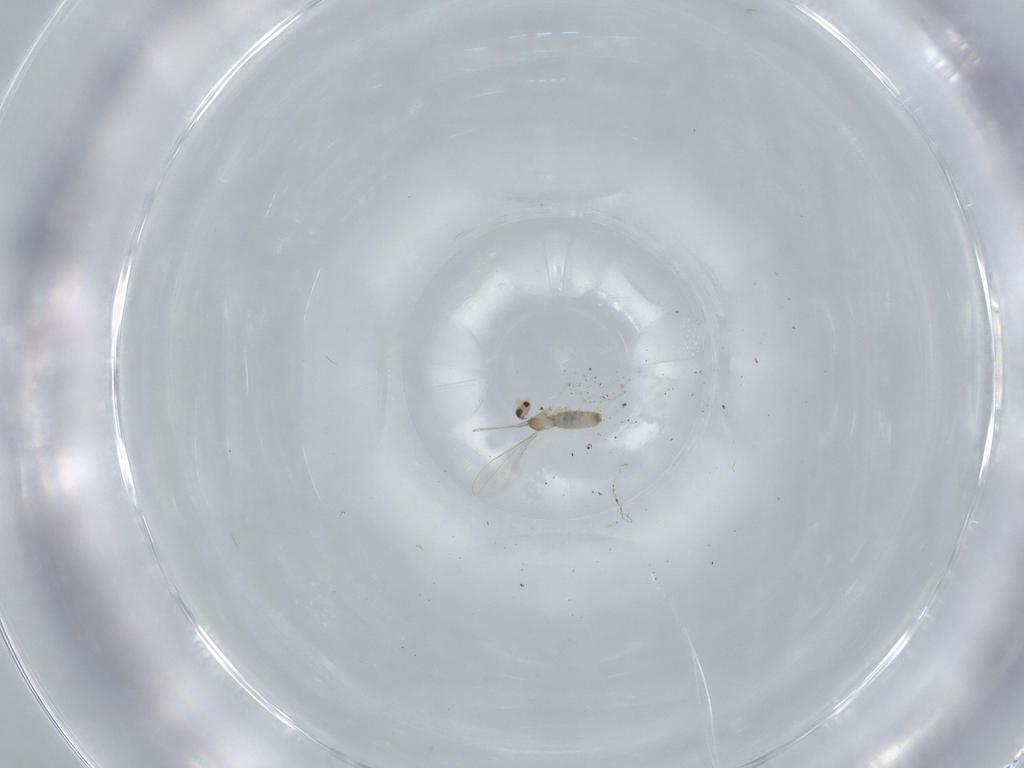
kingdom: Animalia
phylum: Arthropoda
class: Insecta
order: Diptera
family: Cecidomyiidae
